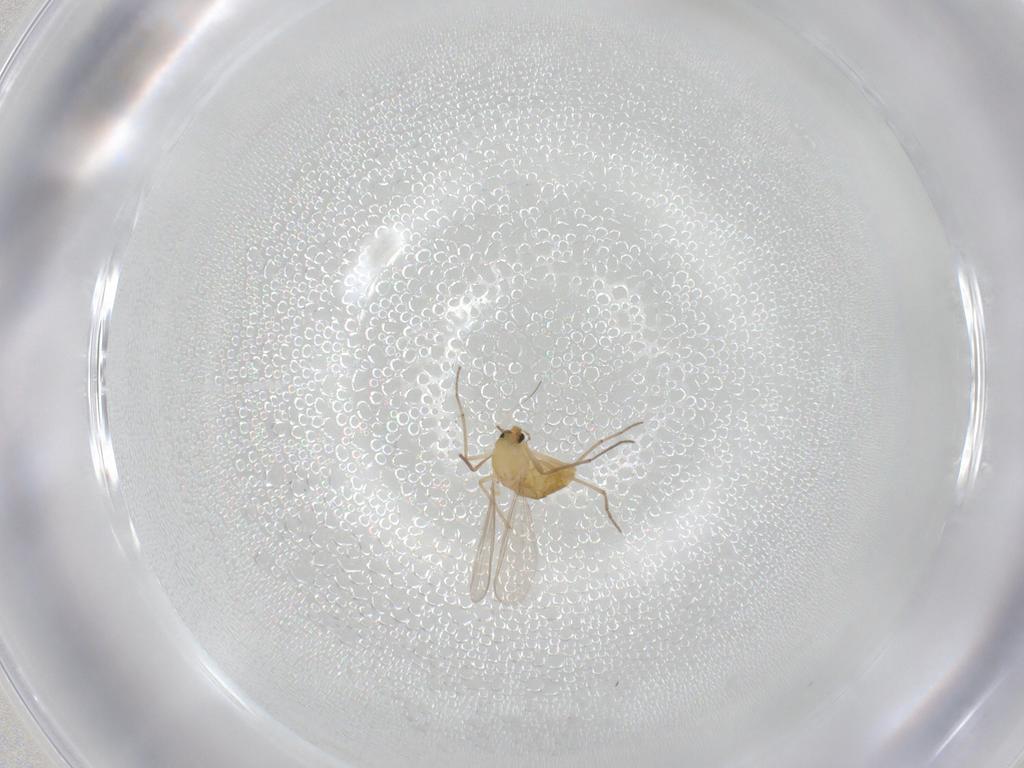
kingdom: Animalia
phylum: Arthropoda
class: Insecta
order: Diptera
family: Chironomidae
